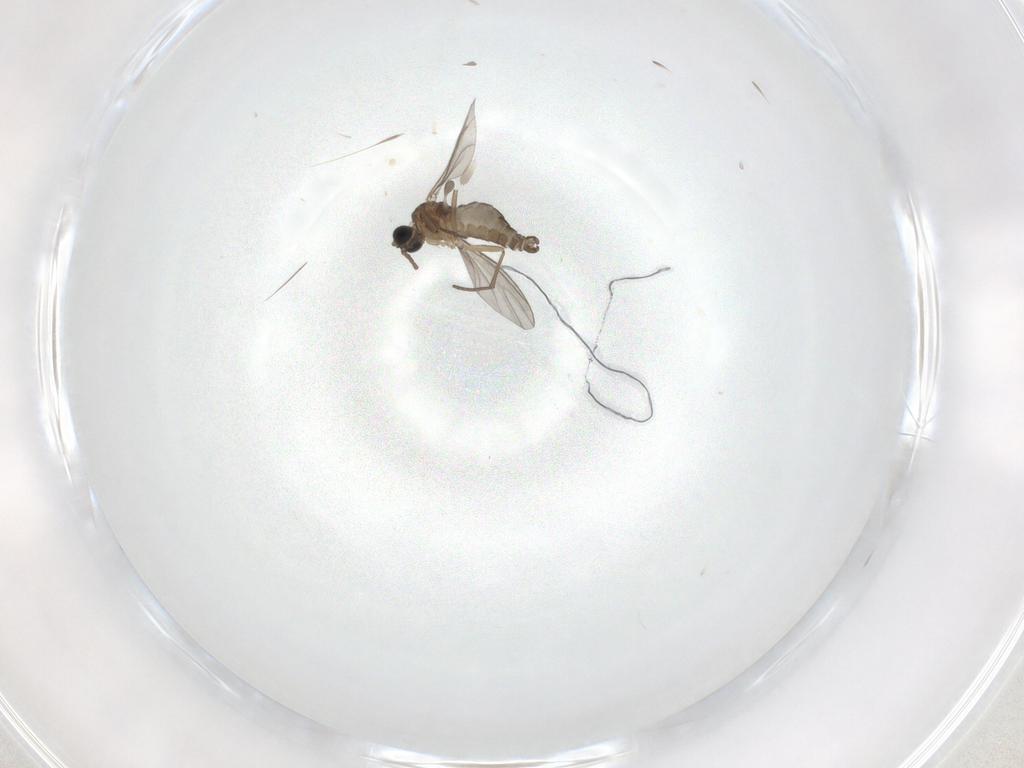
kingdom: Animalia
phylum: Arthropoda
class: Insecta
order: Diptera
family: Sciaridae
